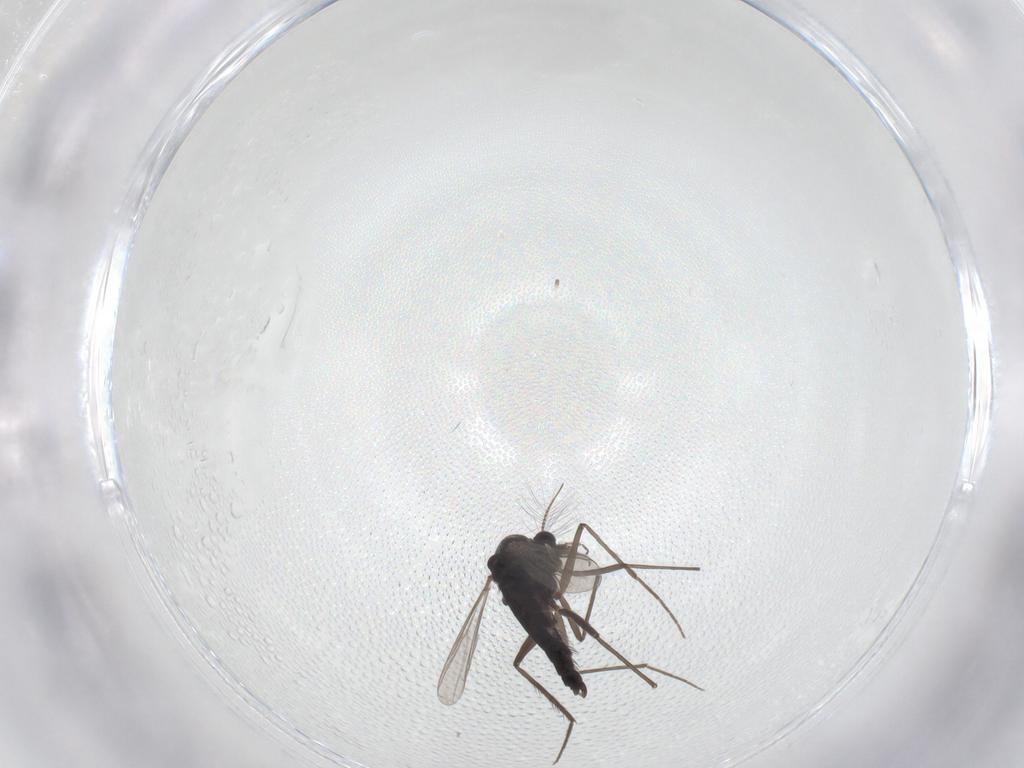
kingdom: Animalia
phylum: Arthropoda
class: Insecta
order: Diptera
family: Chironomidae
